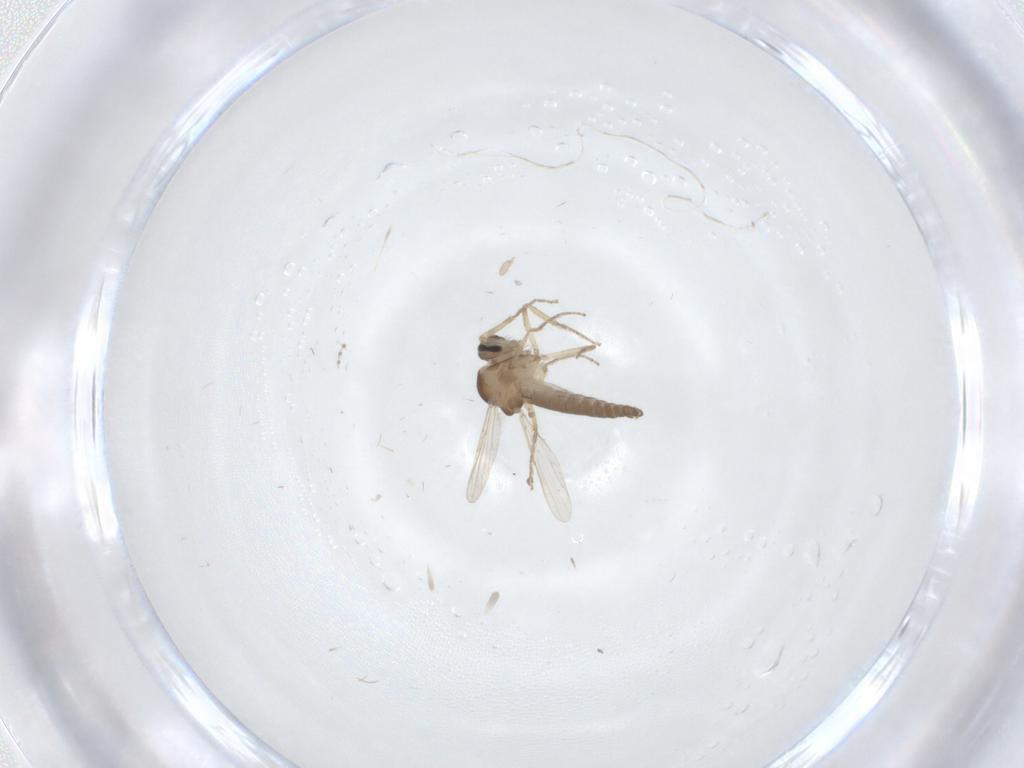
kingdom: Animalia
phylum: Arthropoda
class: Insecta
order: Diptera
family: Ceratopogonidae
